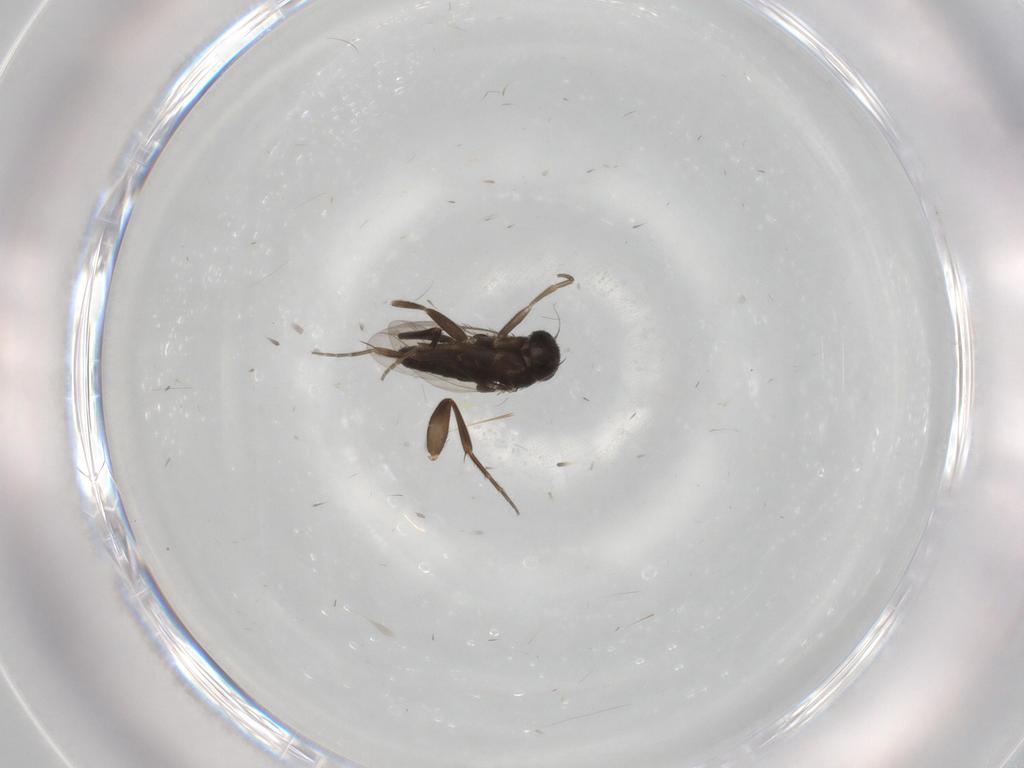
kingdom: Animalia
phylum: Arthropoda
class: Insecta
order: Diptera
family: Phoridae
